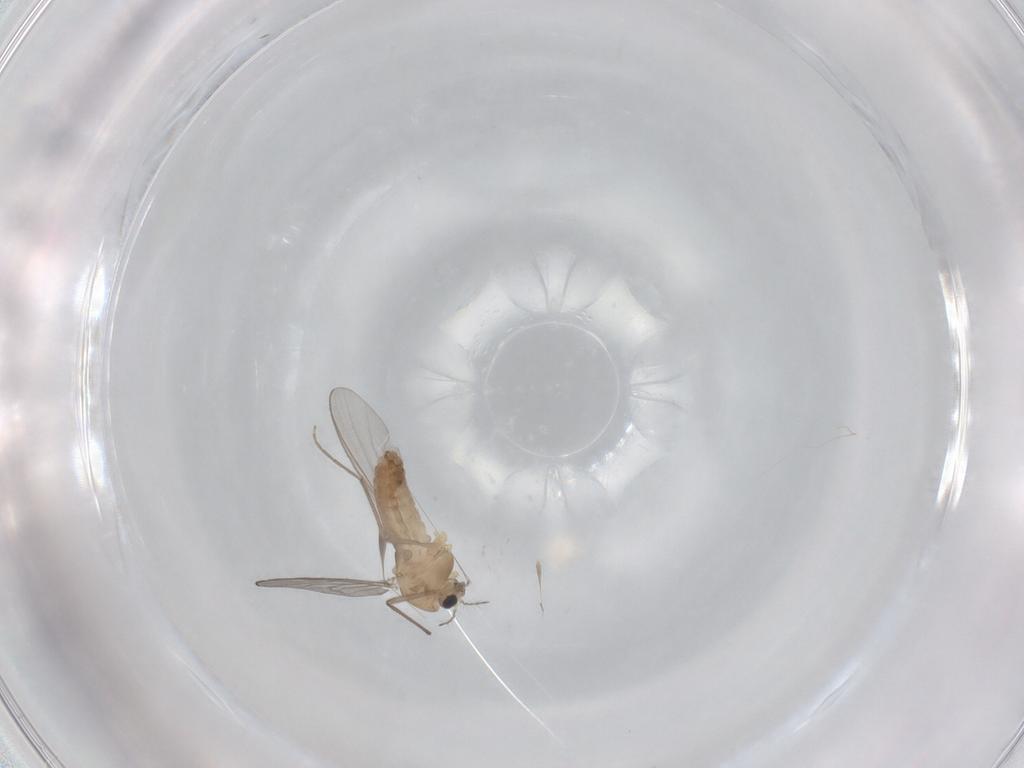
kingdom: Animalia
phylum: Arthropoda
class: Insecta
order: Diptera
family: Chironomidae
